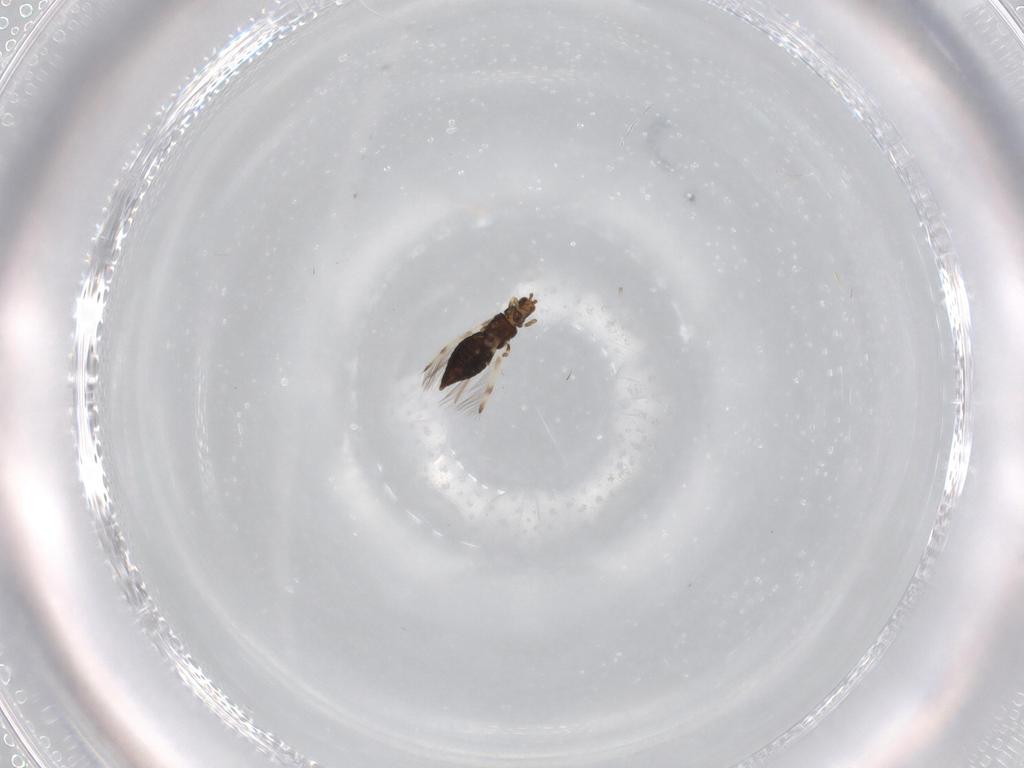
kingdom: Animalia
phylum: Arthropoda
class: Insecta
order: Thysanoptera
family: Thripidae
